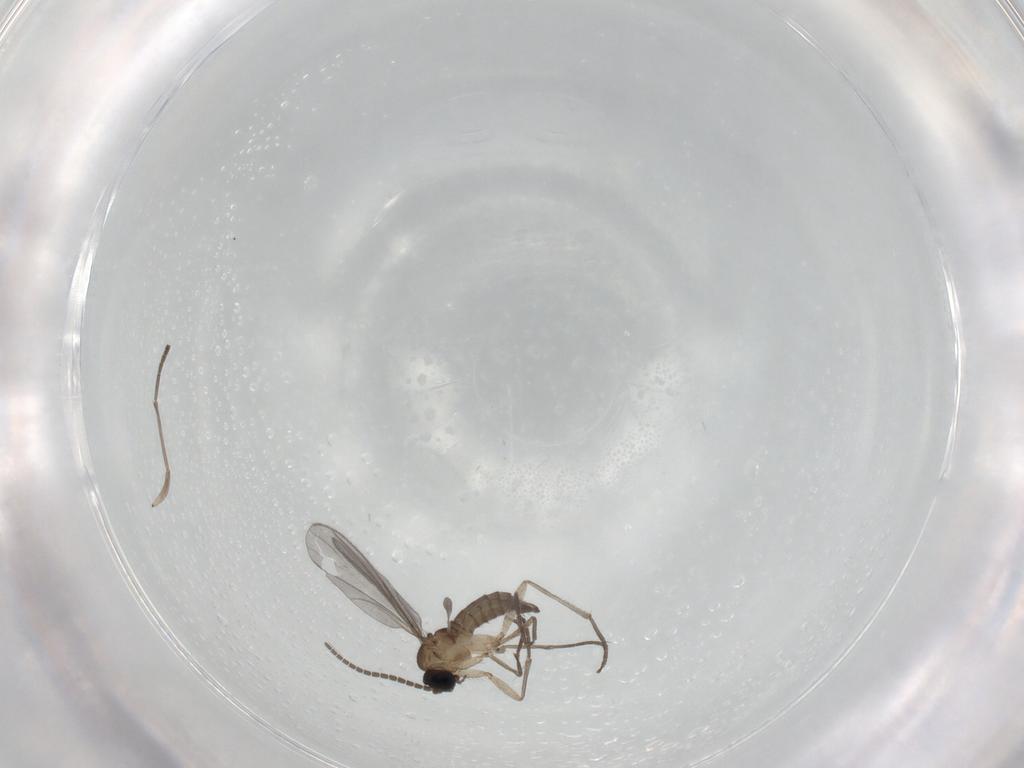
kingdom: Animalia
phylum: Arthropoda
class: Insecta
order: Diptera
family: Sciaridae
